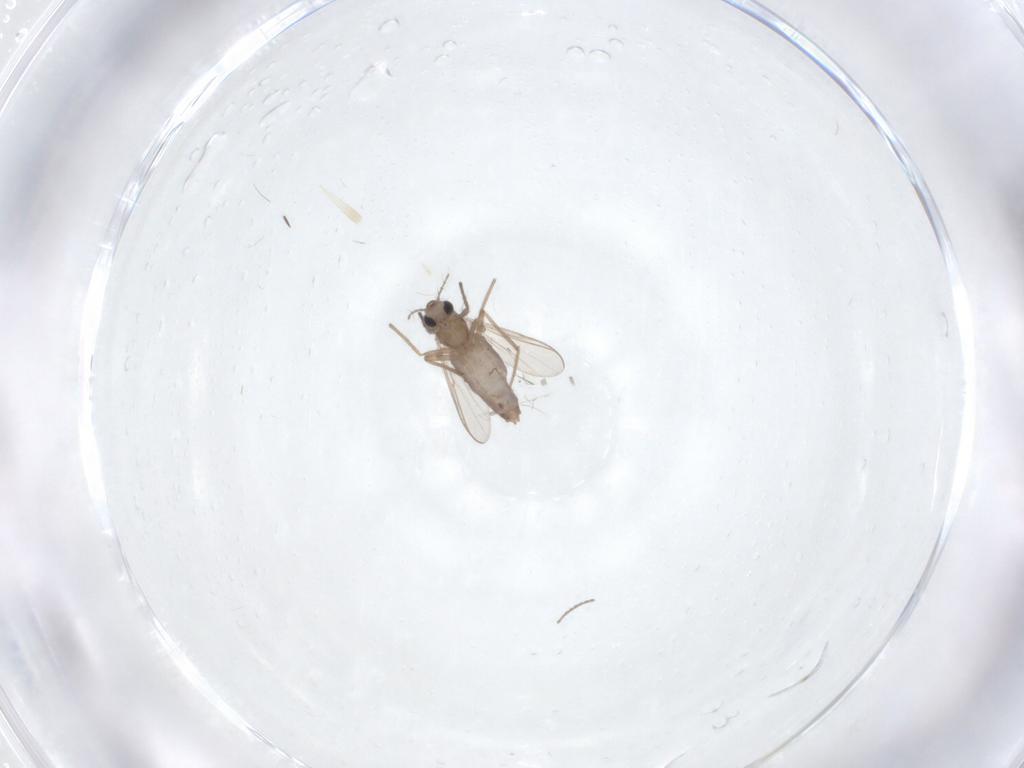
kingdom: Animalia
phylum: Arthropoda
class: Insecta
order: Diptera
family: Chironomidae
